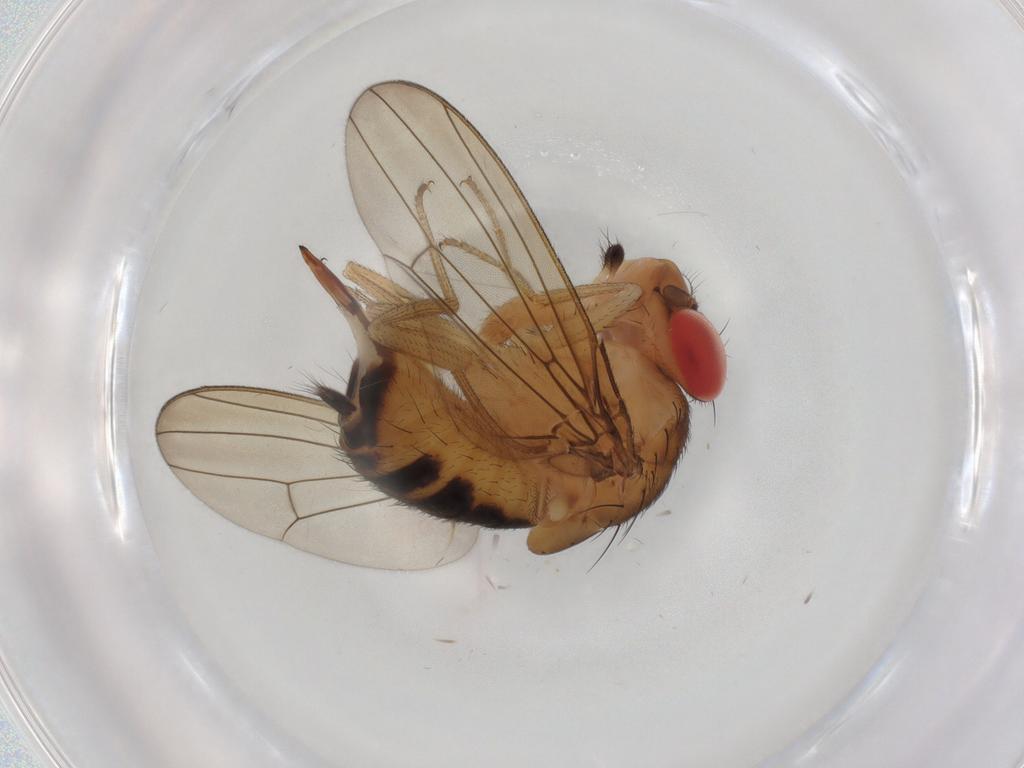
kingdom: Animalia
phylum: Arthropoda
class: Insecta
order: Diptera
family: Drosophilidae
